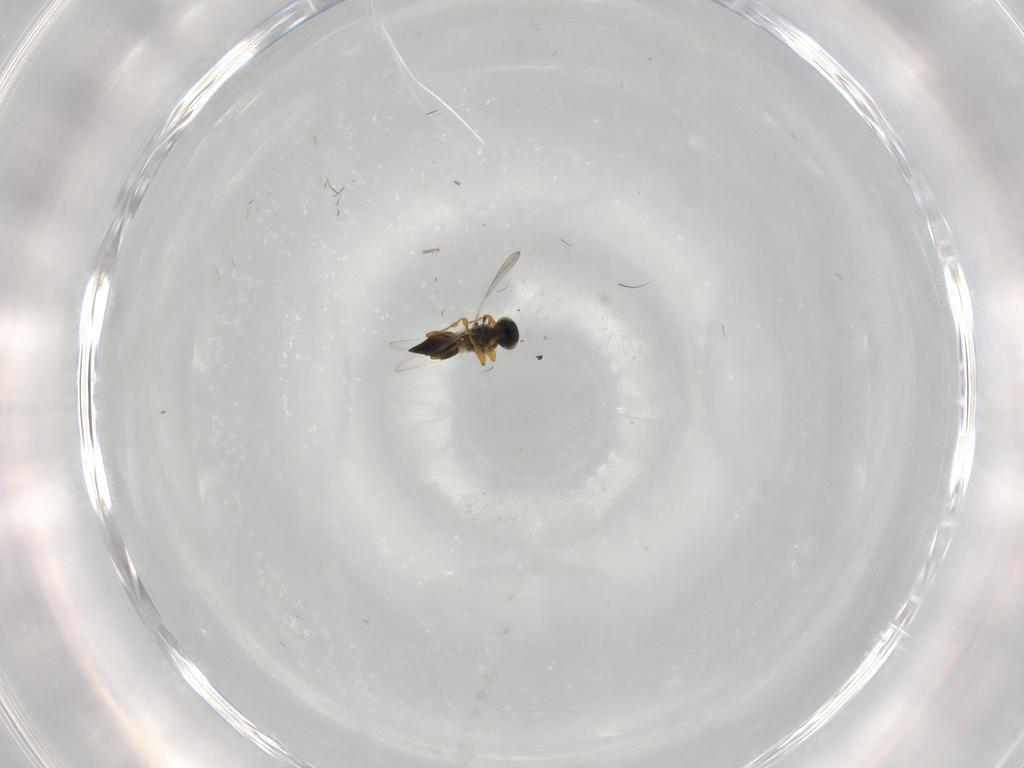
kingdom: Animalia
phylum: Arthropoda
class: Insecta
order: Hymenoptera
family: Platygastridae
